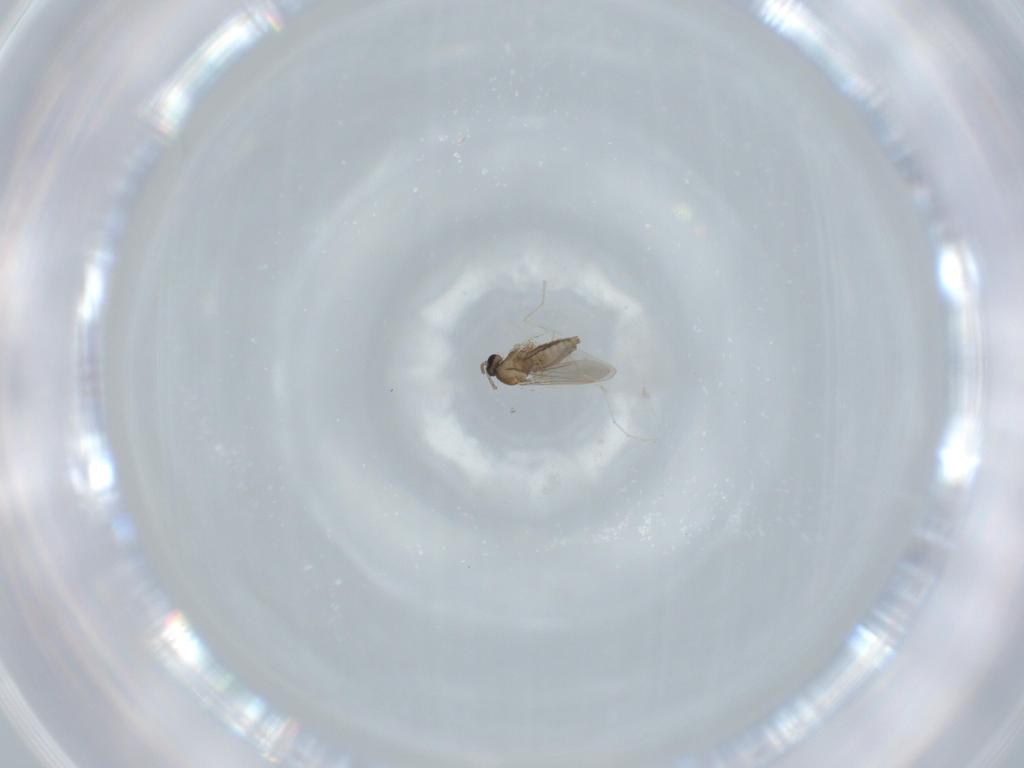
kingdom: Animalia
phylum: Arthropoda
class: Insecta
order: Diptera
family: Cecidomyiidae
